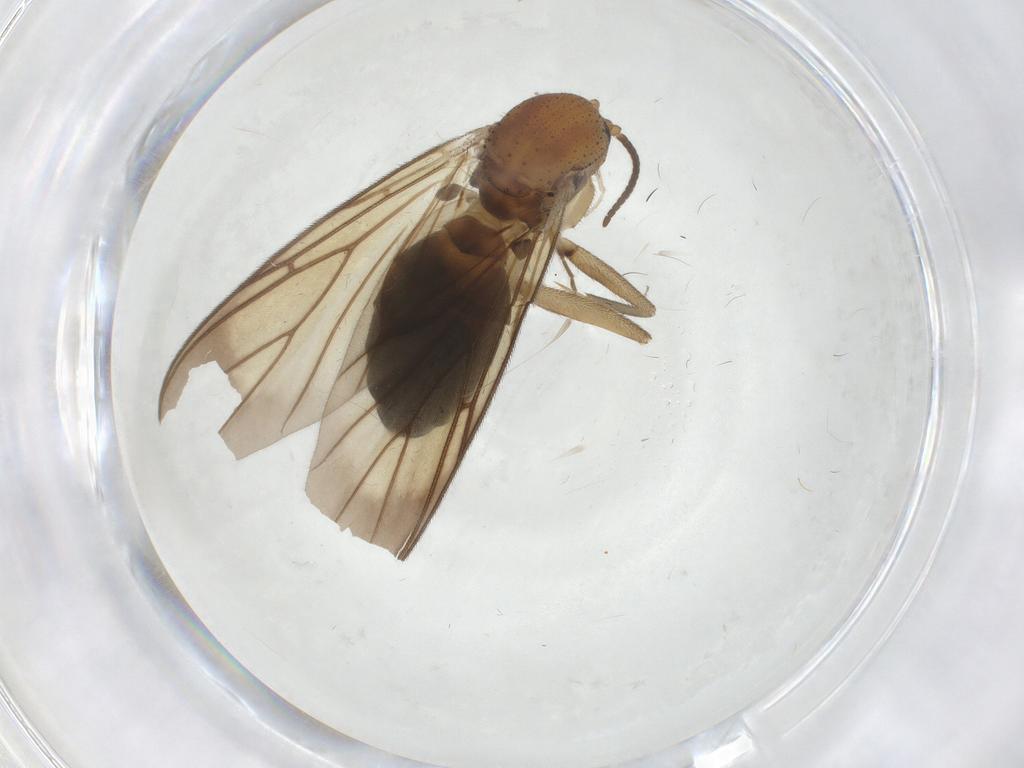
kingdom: Animalia
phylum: Arthropoda
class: Insecta
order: Diptera
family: Mycetophilidae
